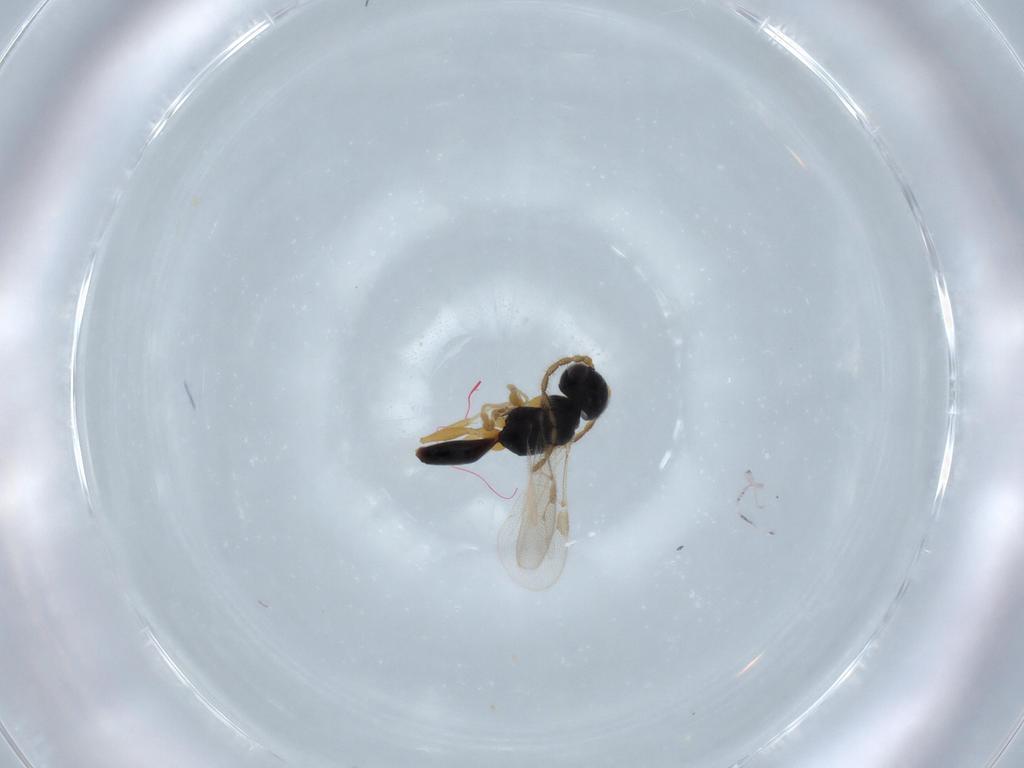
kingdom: Animalia
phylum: Arthropoda
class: Insecta
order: Hymenoptera
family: Dryinidae
